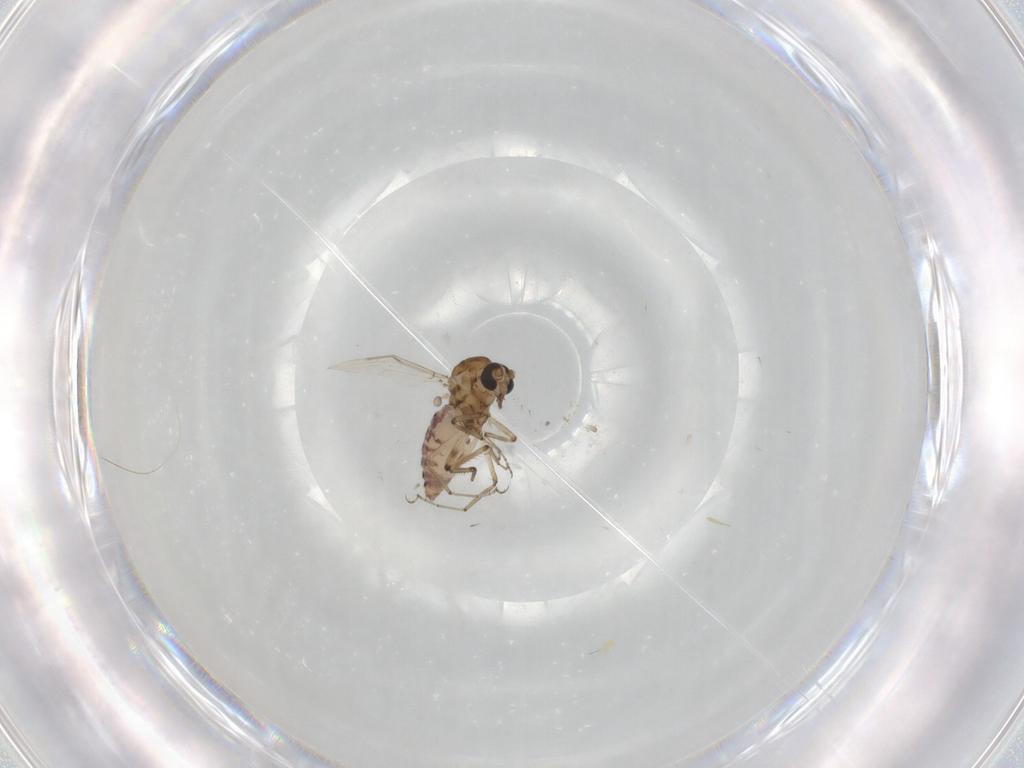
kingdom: Animalia
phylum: Arthropoda
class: Insecta
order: Diptera
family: Ceratopogonidae
